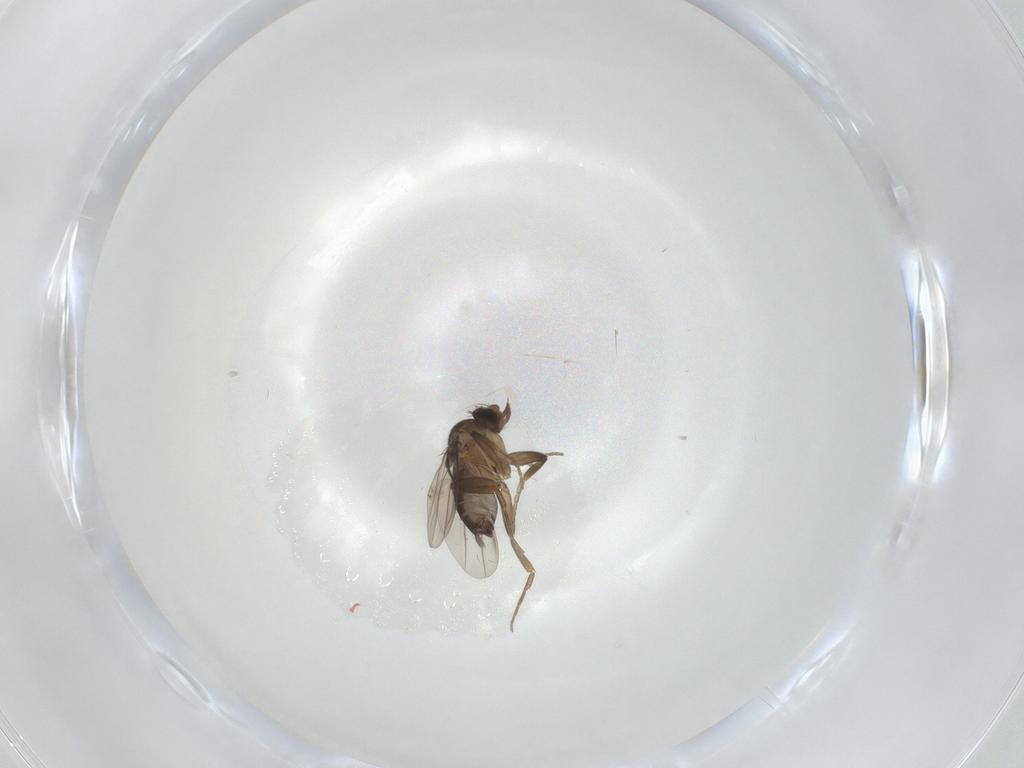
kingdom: Animalia
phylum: Arthropoda
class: Insecta
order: Diptera
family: Phoridae
